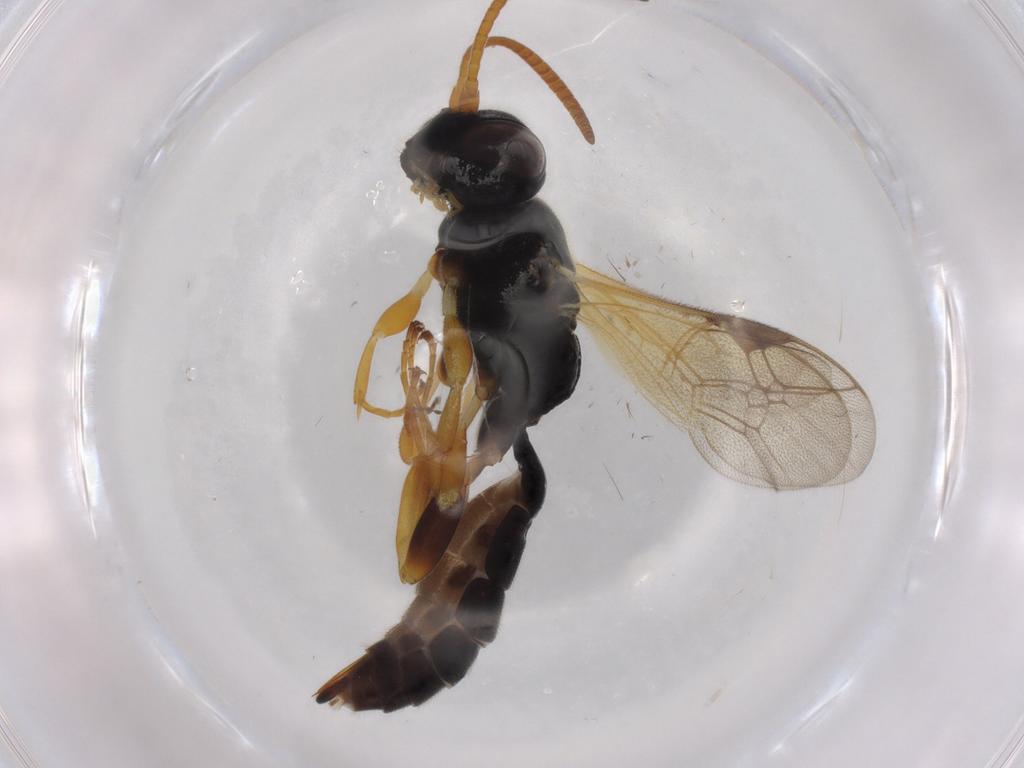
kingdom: Animalia
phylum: Arthropoda
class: Insecta
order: Hymenoptera
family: Ichneumonidae
